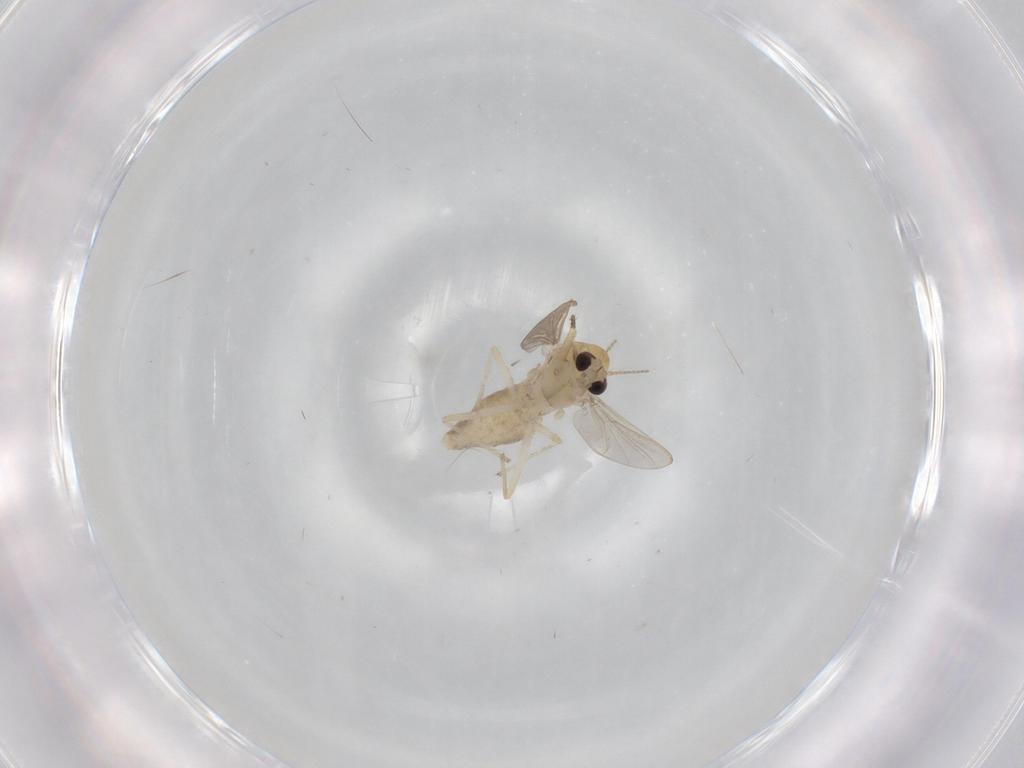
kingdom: Animalia
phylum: Arthropoda
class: Insecta
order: Diptera
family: Chironomidae
